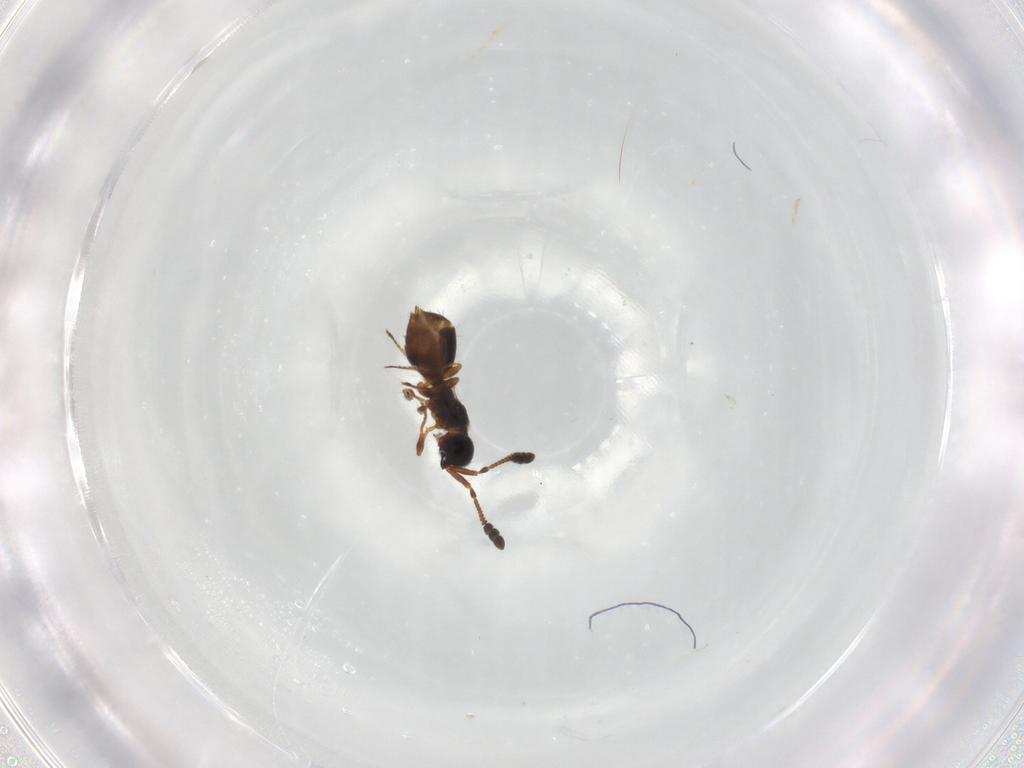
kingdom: Animalia
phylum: Arthropoda
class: Insecta
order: Hymenoptera
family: Diapriidae
